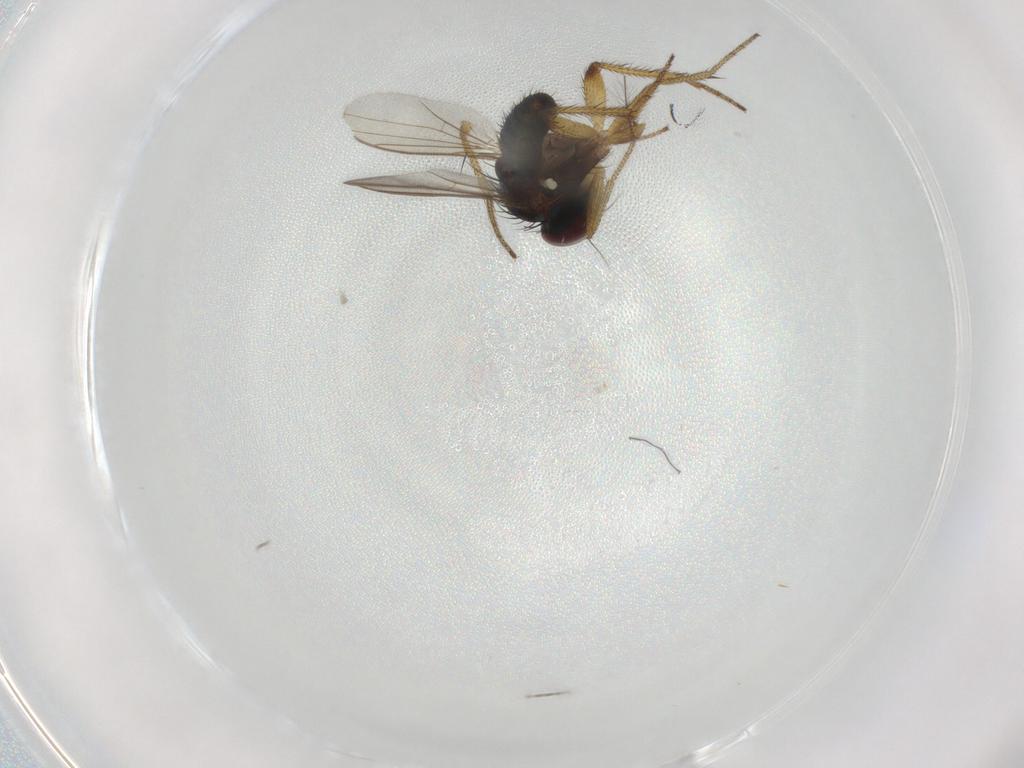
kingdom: Animalia
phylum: Arthropoda
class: Insecta
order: Diptera
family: Dolichopodidae
